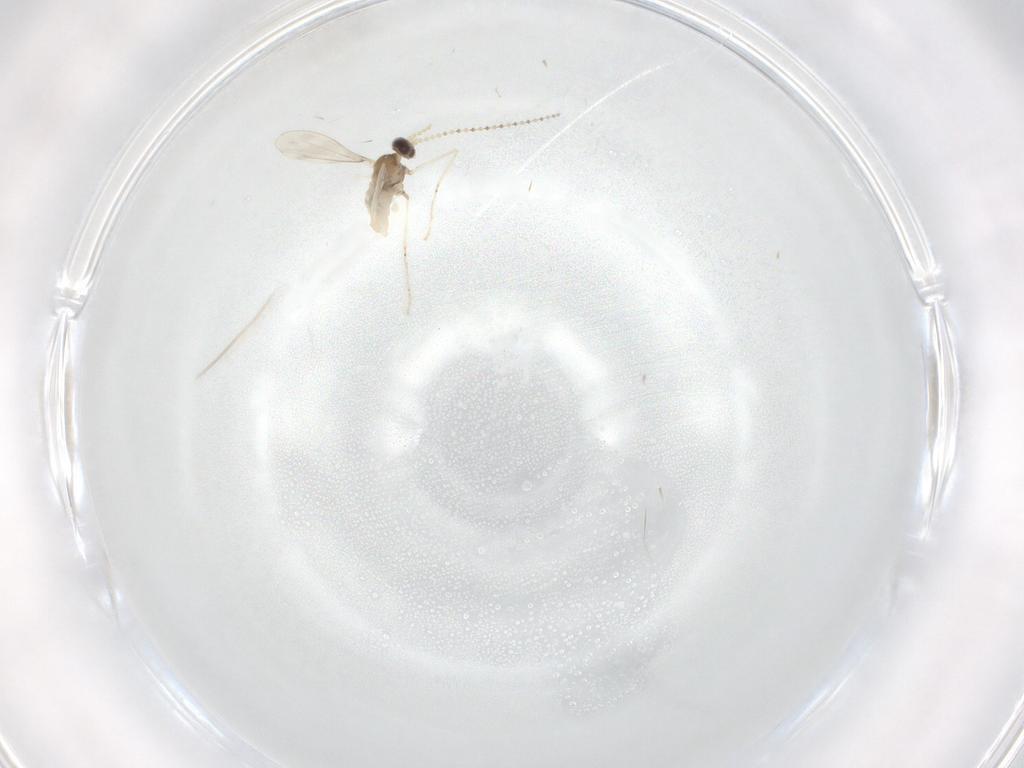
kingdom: Animalia
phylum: Arthropoda
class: Insecta
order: Diptera
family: Cecidomyiidae
